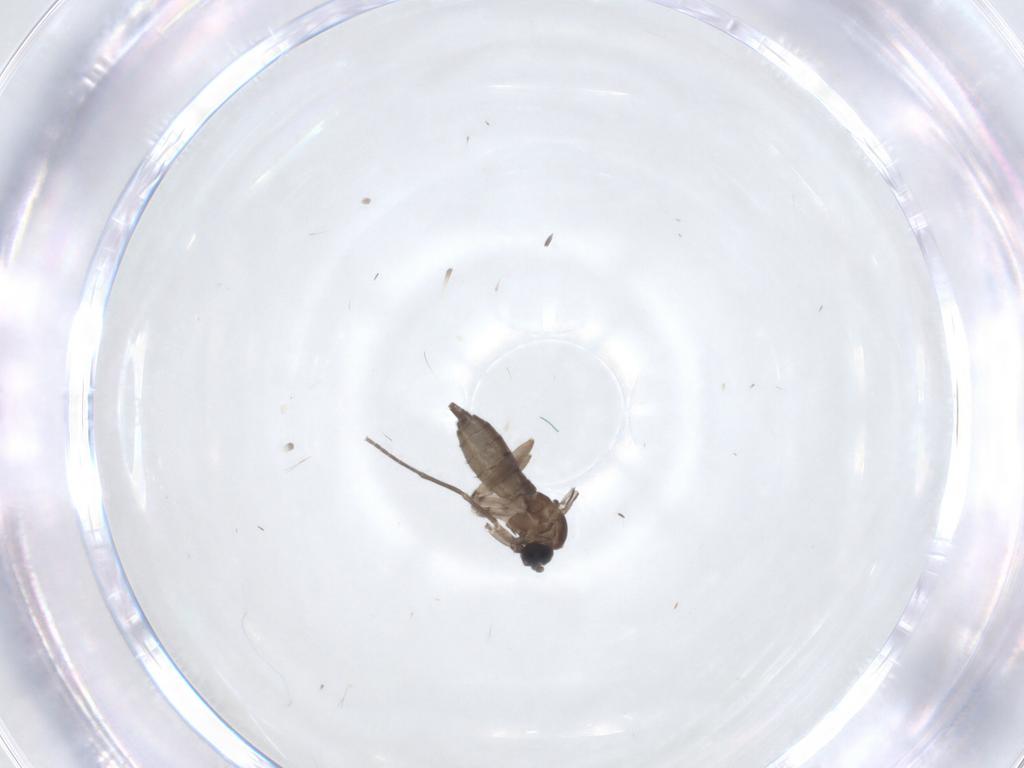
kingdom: Animalia
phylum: Arthropoda
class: Insecta
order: Diptera
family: Sciaridae
